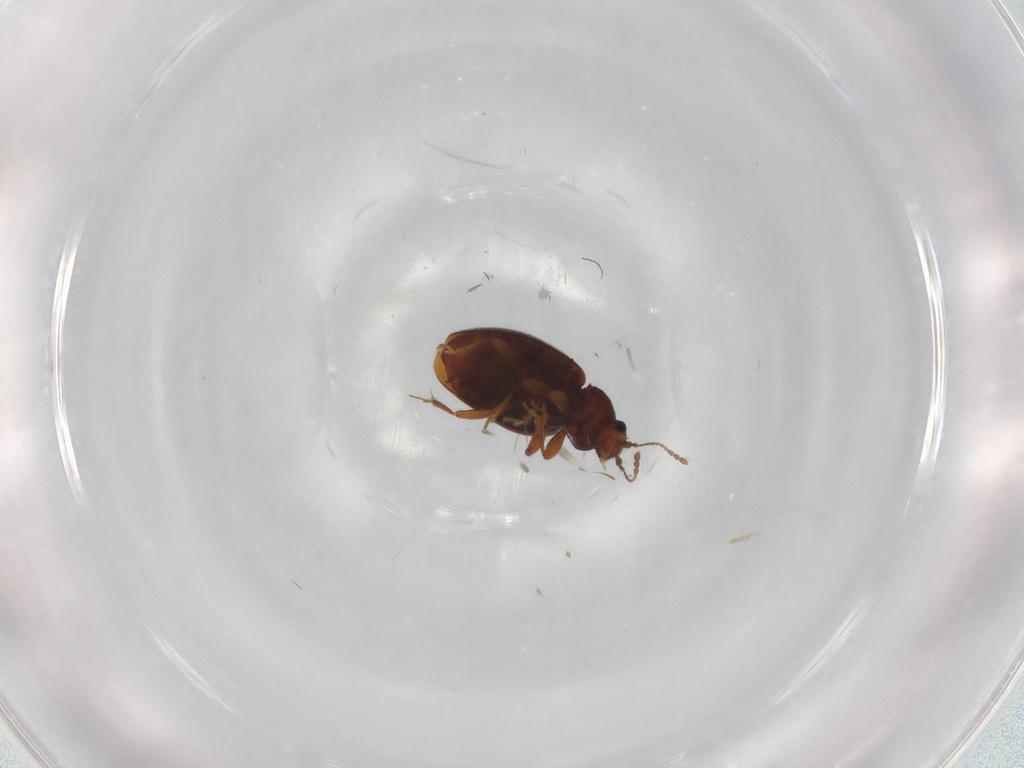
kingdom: Animalia
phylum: Arthropoda
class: Insecta
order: Coleoptera
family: Latridiidae
